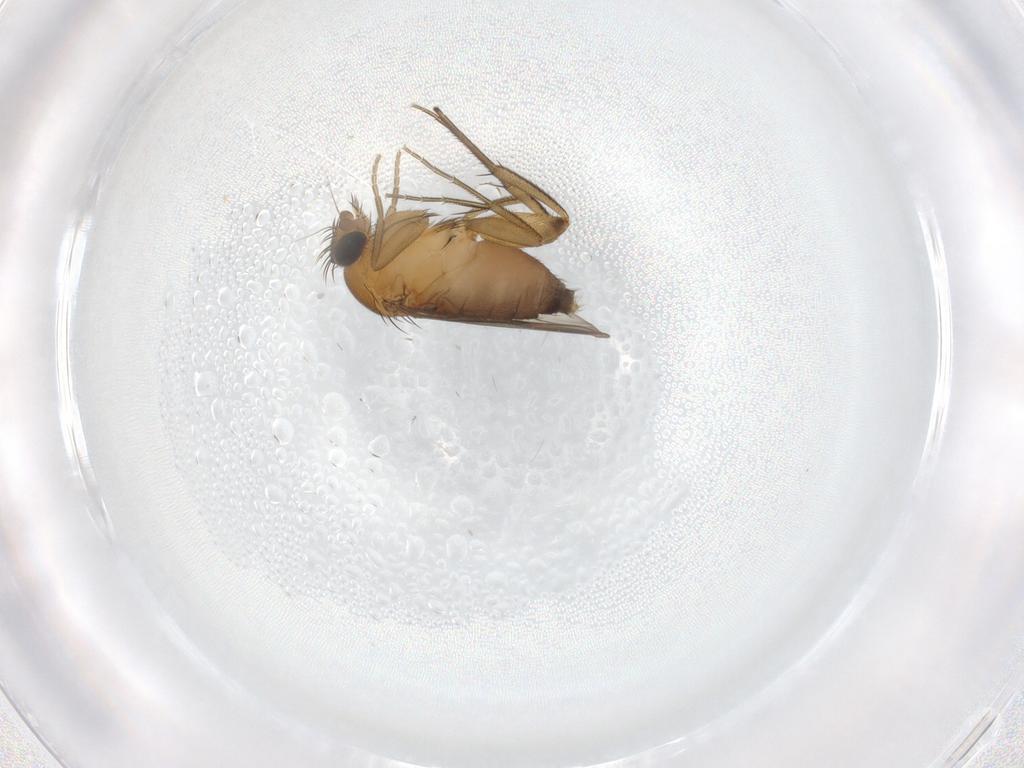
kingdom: Animalia
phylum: Arthropoda
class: Insecta
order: Diptera
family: Phoridae
